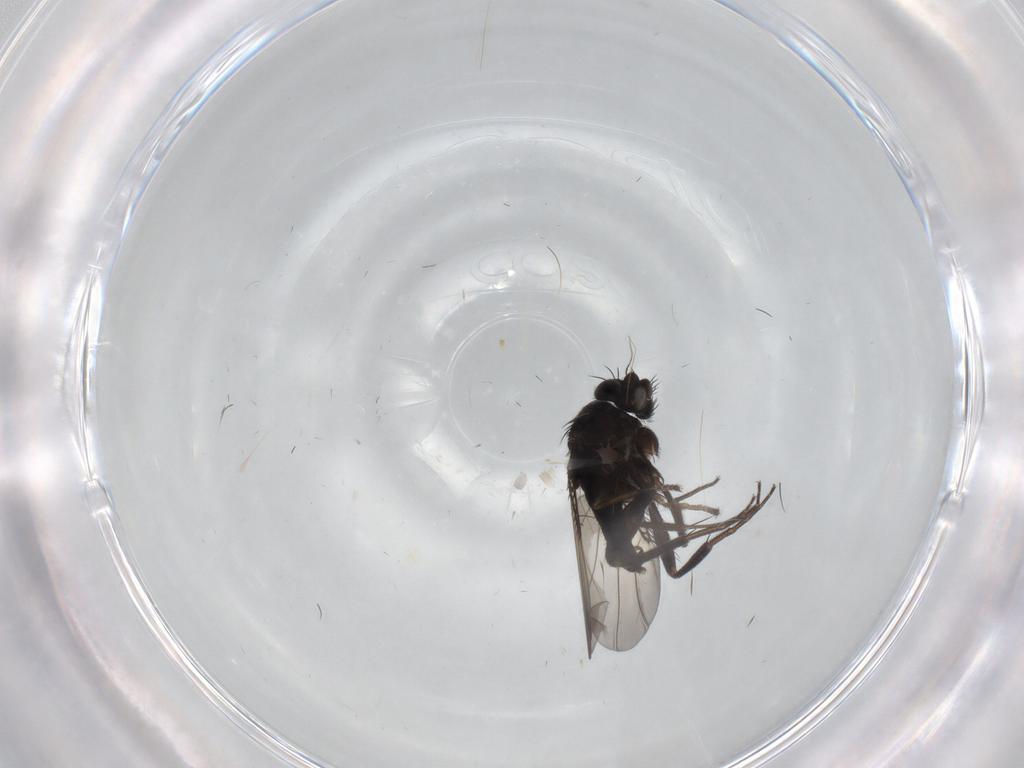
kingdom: Animalia
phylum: Arthropoda
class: Insecta
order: Diptera
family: Phoridae
